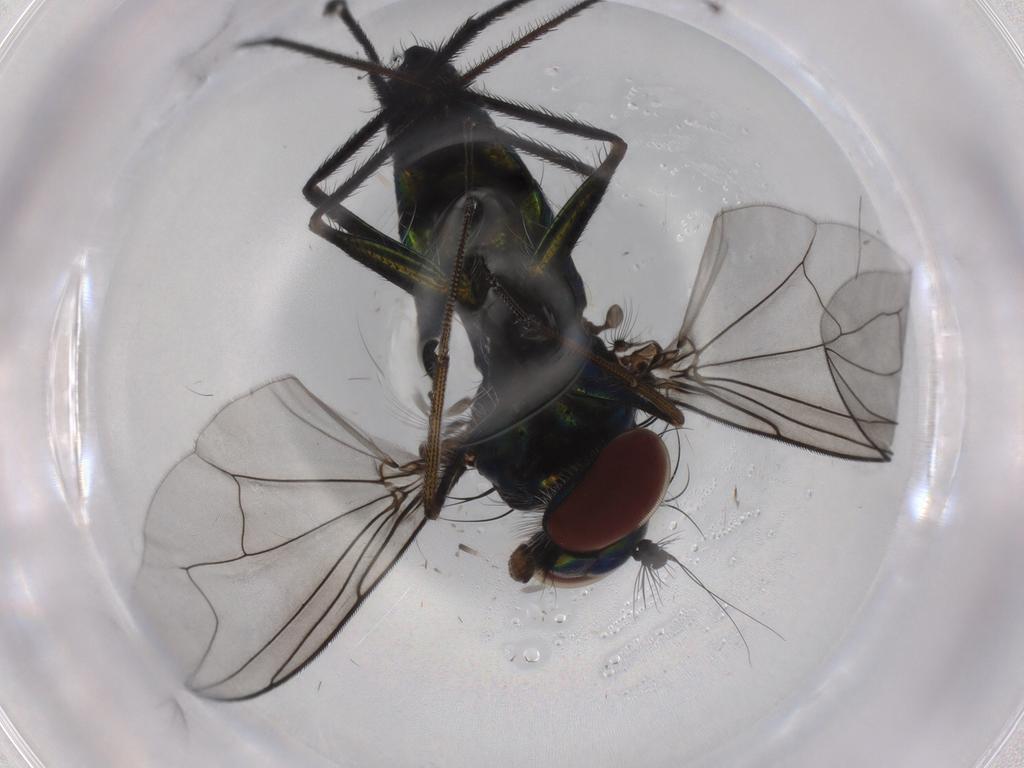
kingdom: Animalia
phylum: Arthropoda
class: Insecta
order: Diptera
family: Dolichopodidae
